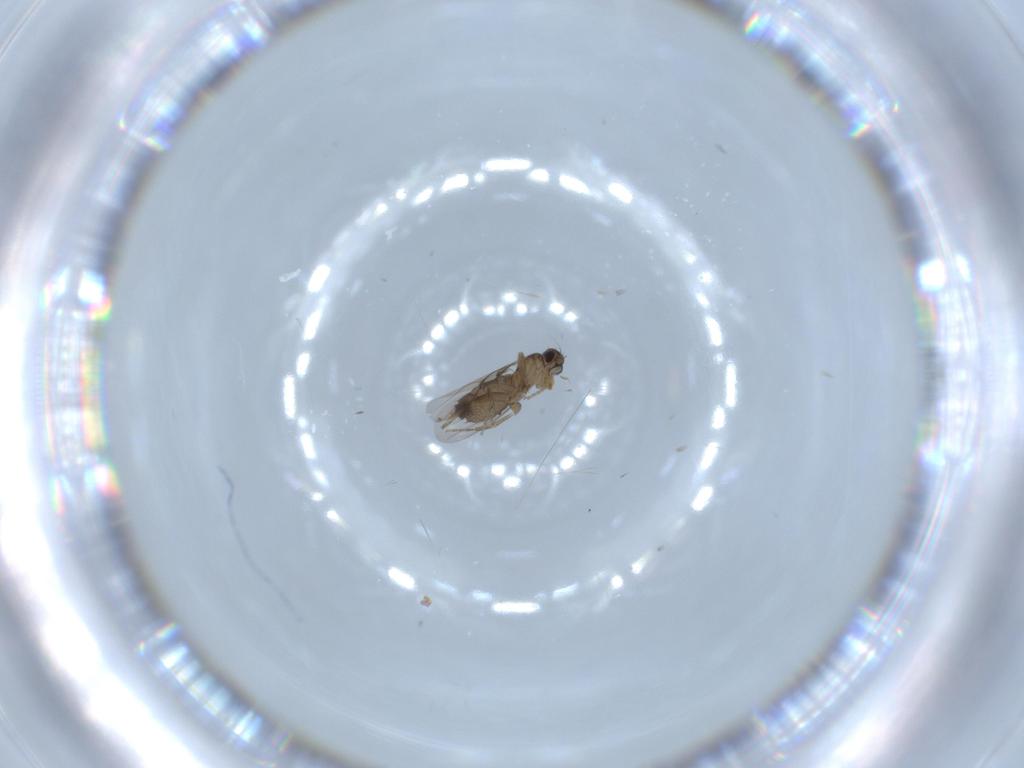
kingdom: Animalia
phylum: Arthropoda
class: Insecta
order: Diptera
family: Phoridae
